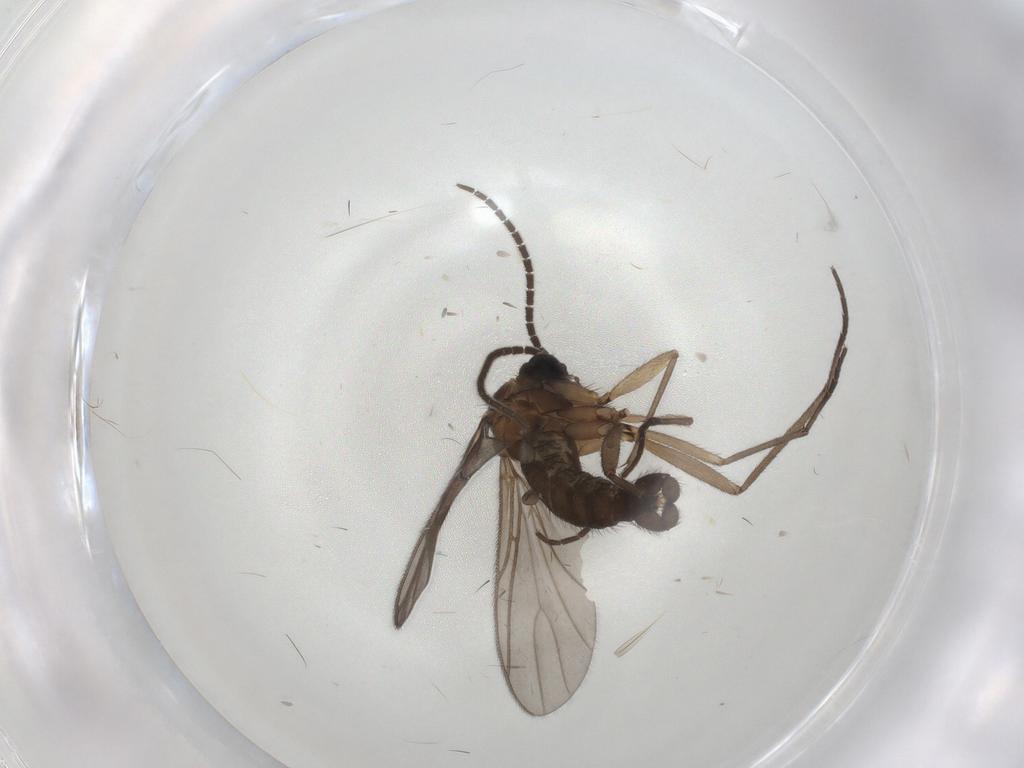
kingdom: Animalia
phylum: Arthropoda
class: Insecta
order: Diptera
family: Sciaridae
